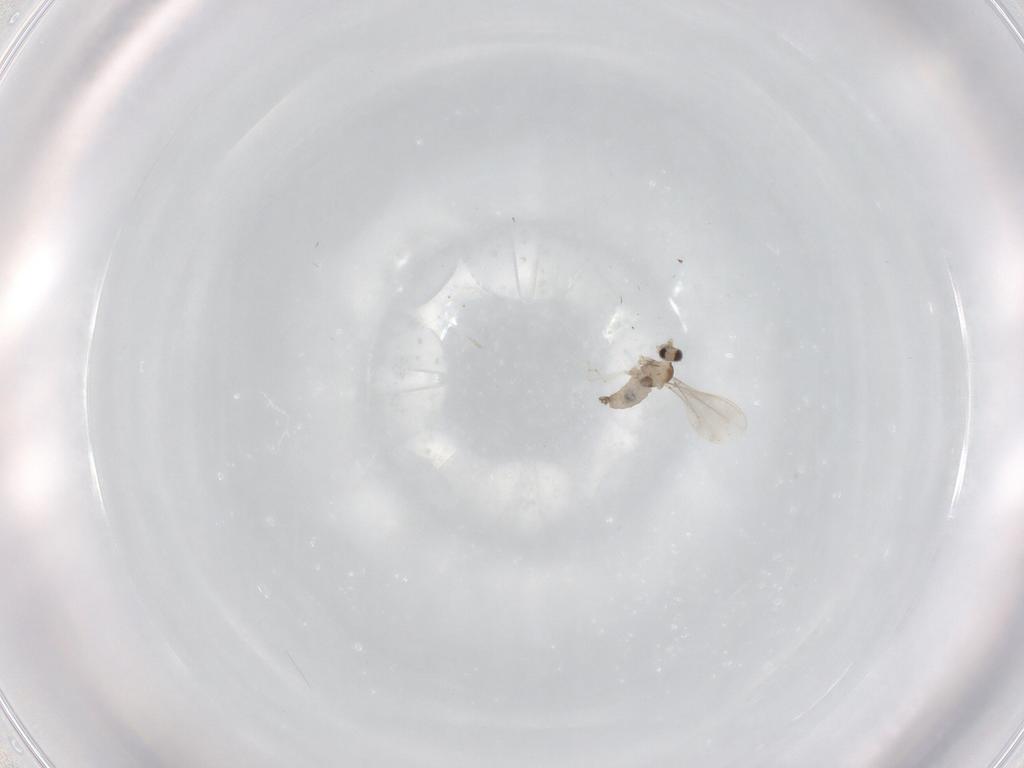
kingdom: Animalia
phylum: Arthropoda
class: Insecta
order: Diptera
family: Cecidomyiidae
